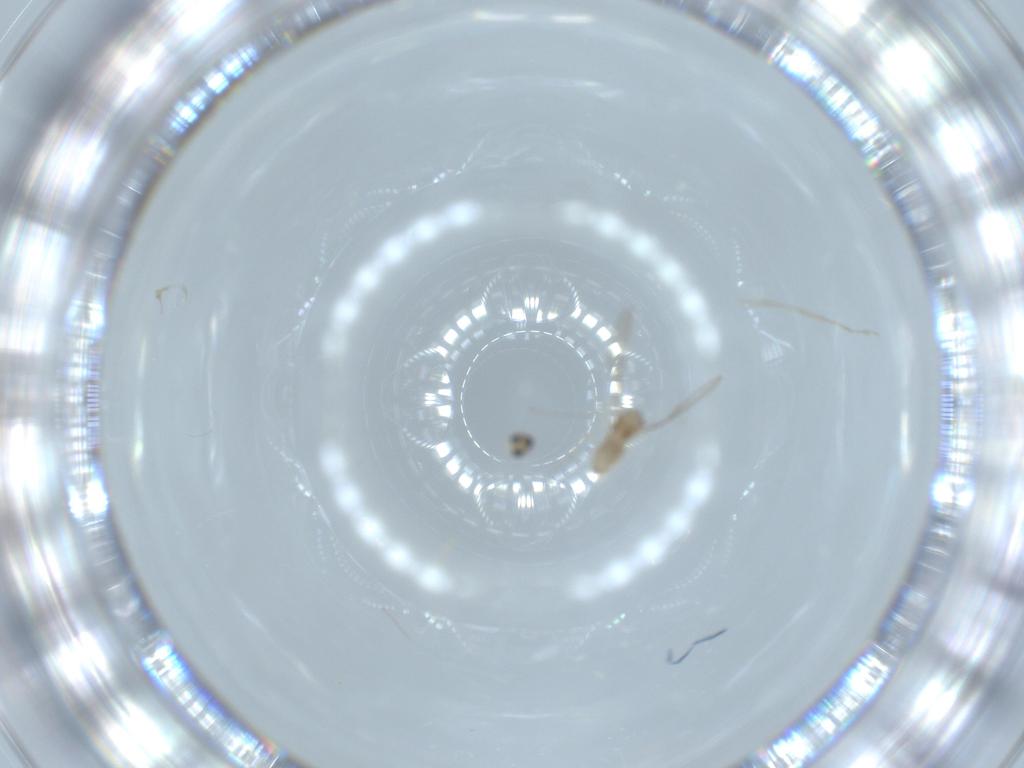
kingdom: Animalia
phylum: Arthropoda
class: Insecta
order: Diptera
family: Cecidomyiidae
